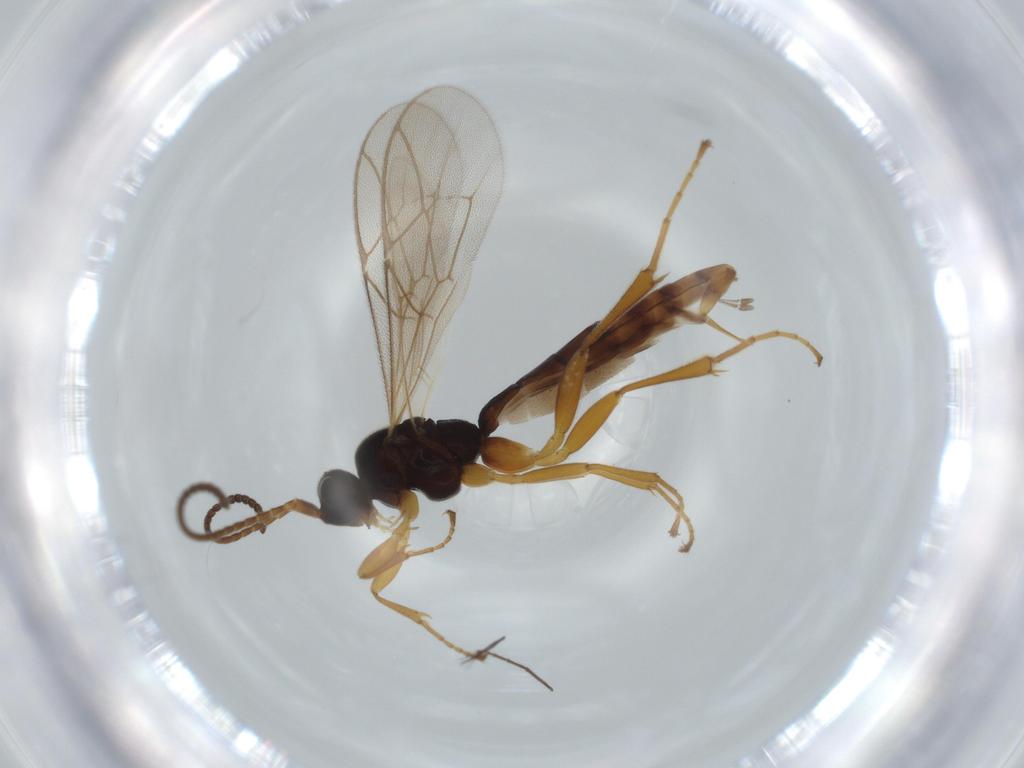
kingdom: Animalia
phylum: Arthropoda
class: Insecta
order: Hymenoptera
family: Ichneumonidae
